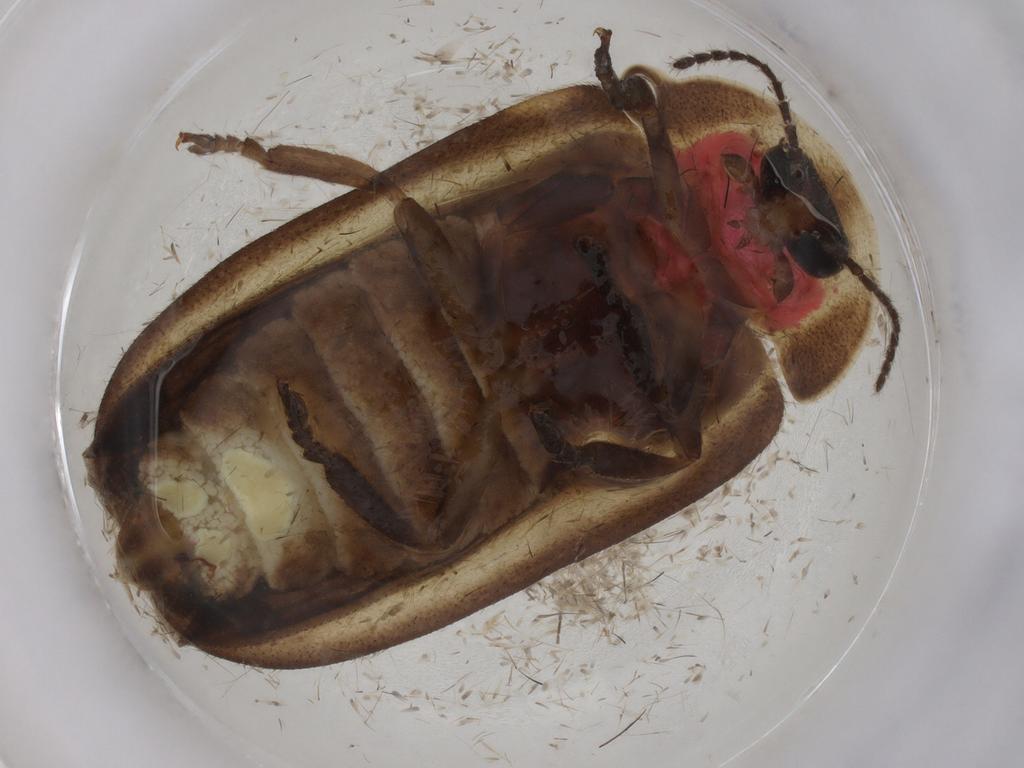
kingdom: Animalia
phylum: Arthropoda
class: Insecta
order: Coleoptera
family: Lampyridae
